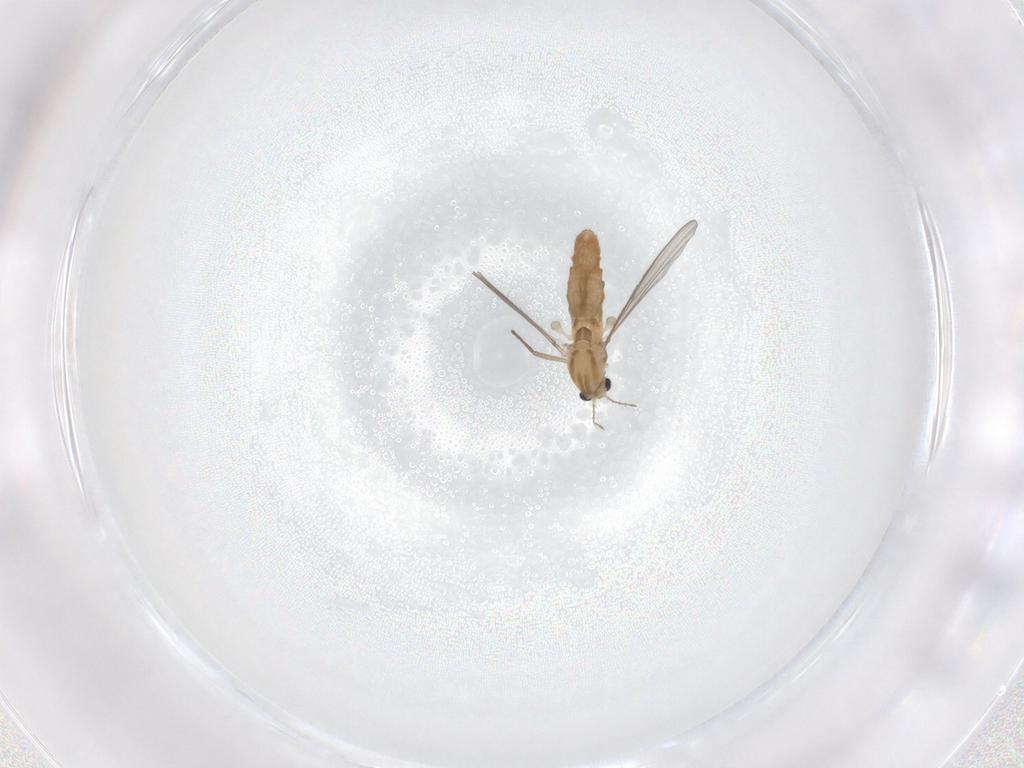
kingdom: Animalia
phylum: Arthropoda
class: Insecta
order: Diptera
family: Chironomidae
